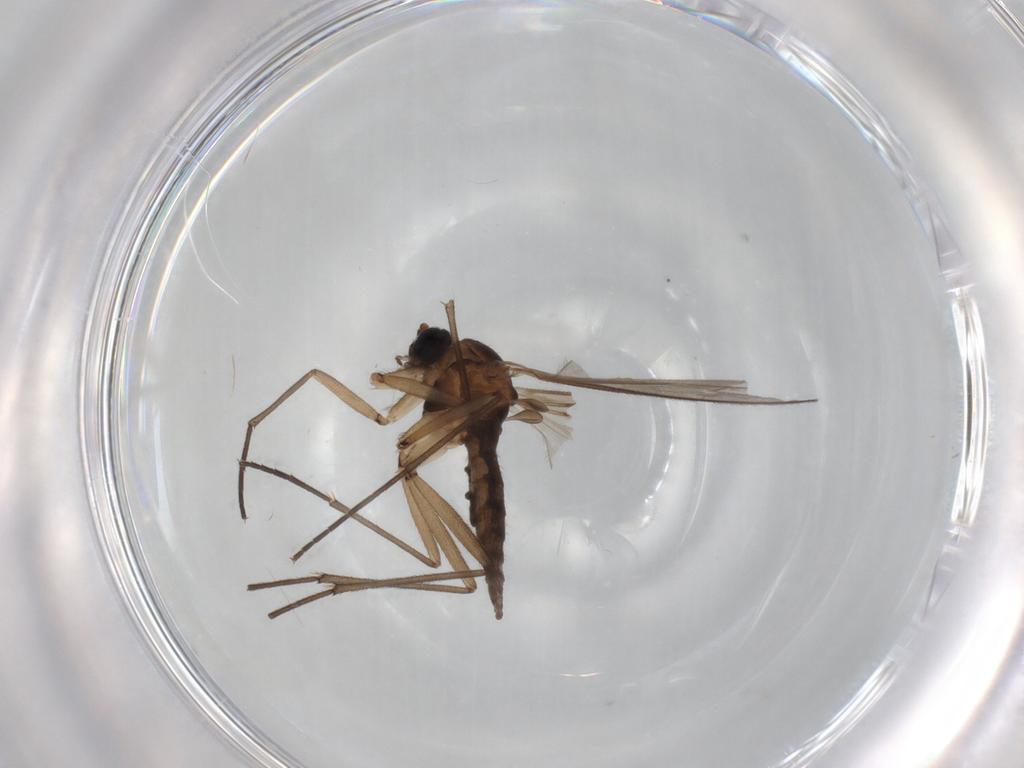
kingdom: Animalia
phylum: Arthropoda
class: Insecta
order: Diptera
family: Sciaridae
